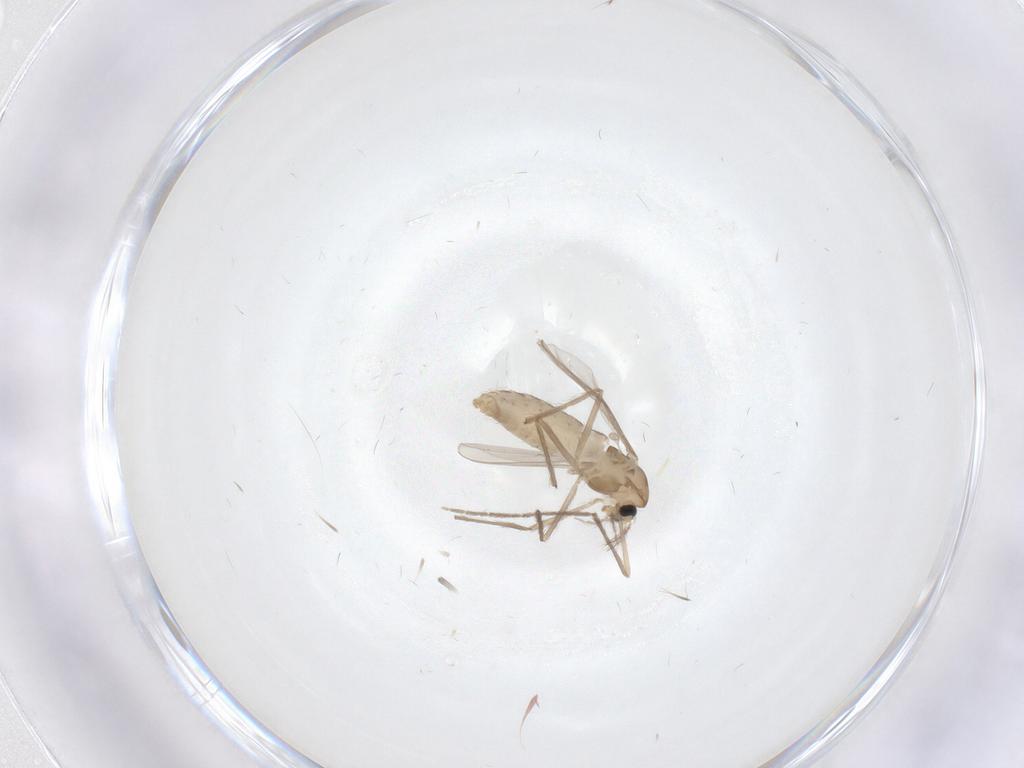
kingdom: Animalia
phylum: Arthropoda
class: Insecta
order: Diptera
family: Chironomidae
